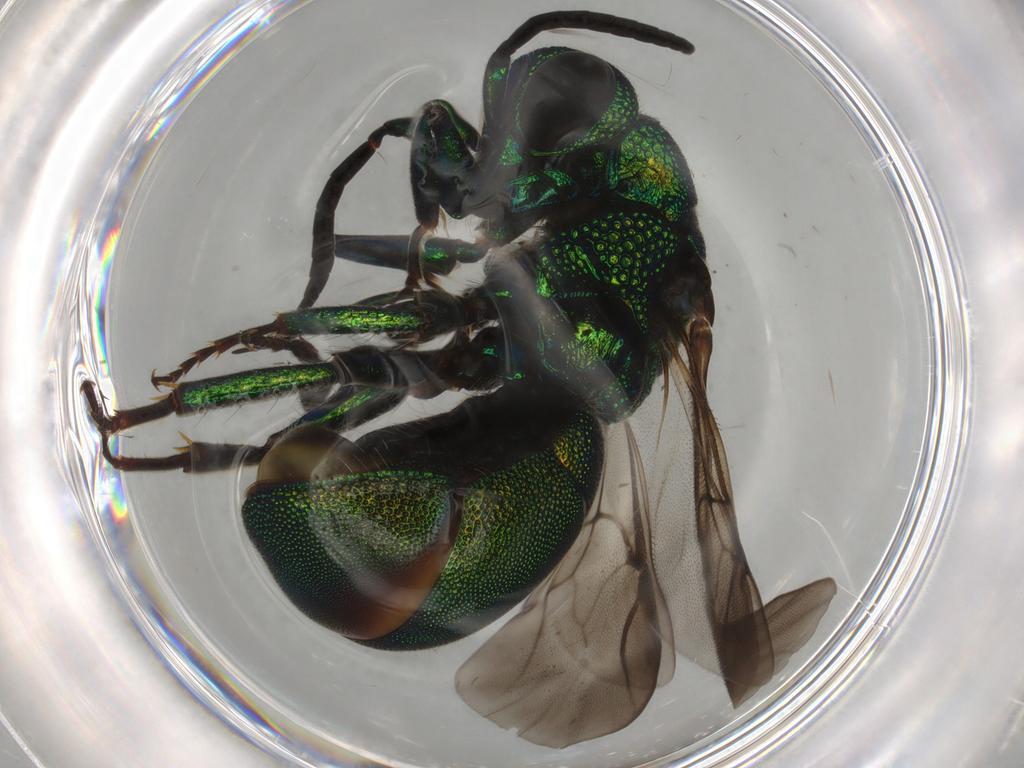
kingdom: Animalia
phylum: Arthropoda
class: Insecta
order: Hymenoptera
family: Chrysididae
